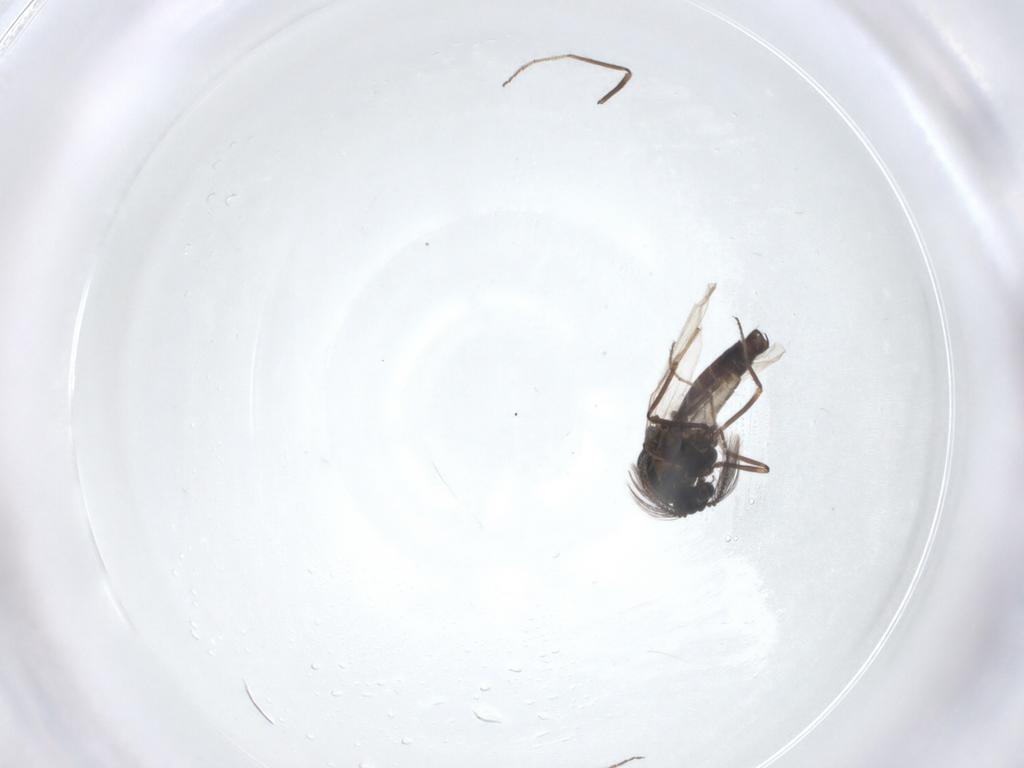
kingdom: Animalia
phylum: Arthropoda
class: Insecta
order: Diptera
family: Ceratopogonidae
